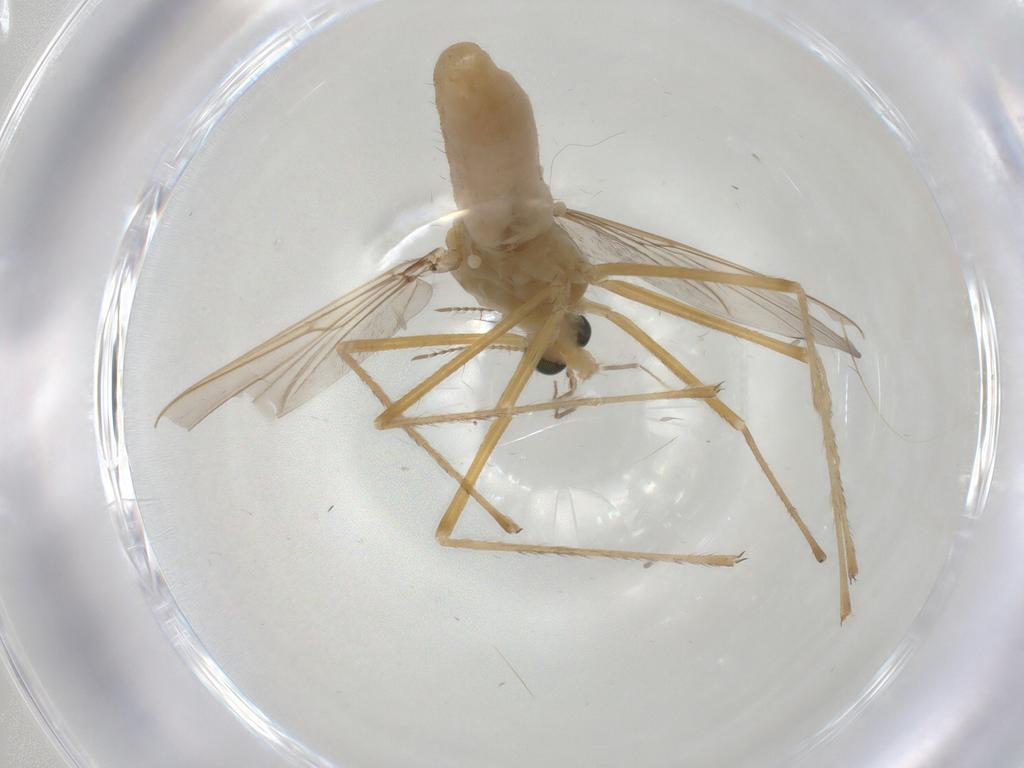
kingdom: Animalia
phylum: Arthropoda
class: Insecta
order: Diptera
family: Chironomidae
